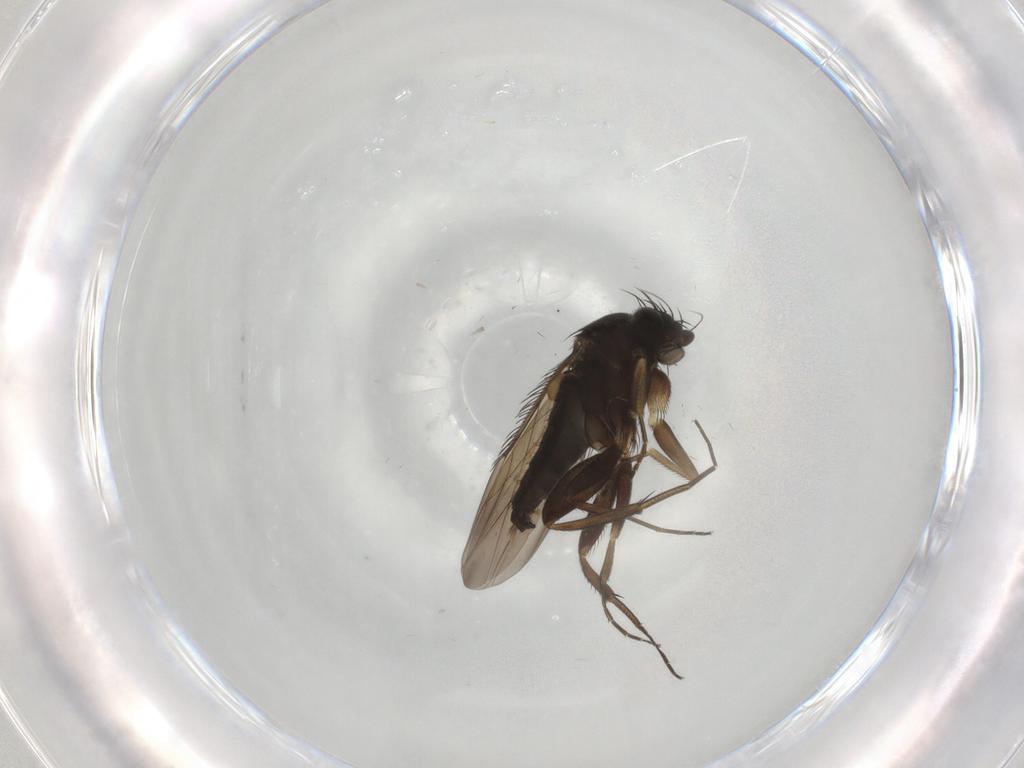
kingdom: Animalia
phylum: Arthropoda
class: Insecta
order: Diptera
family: Phoridae
